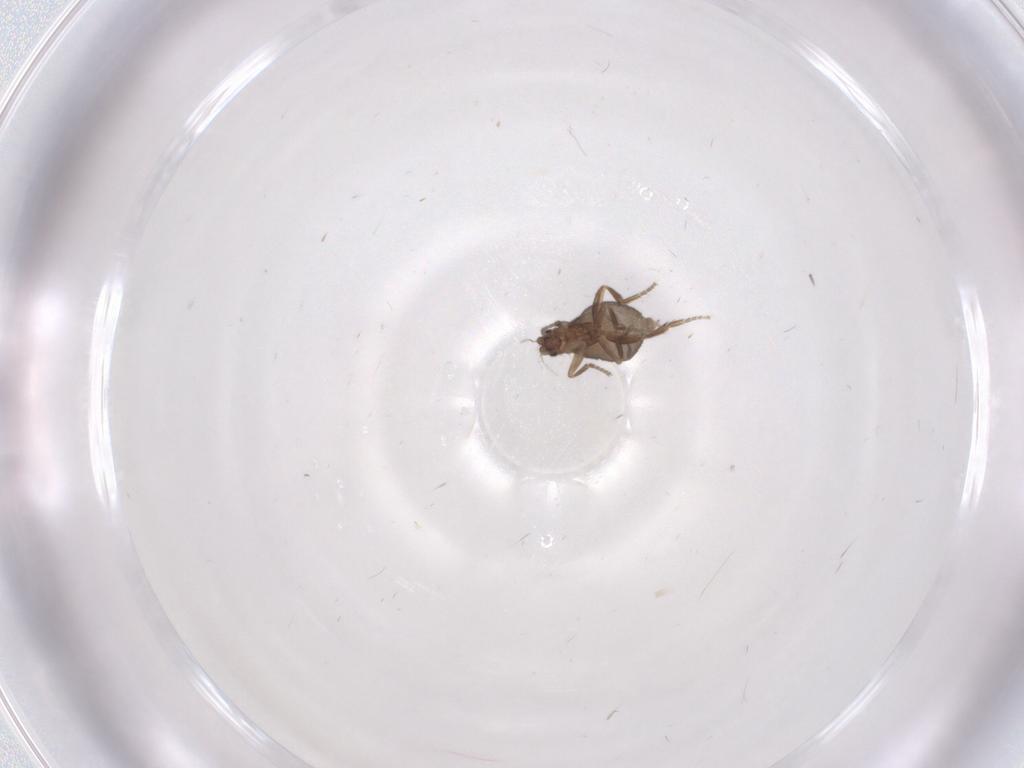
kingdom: Animalia
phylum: Arthropoda
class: Insecta
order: Diptera
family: Phoridae
